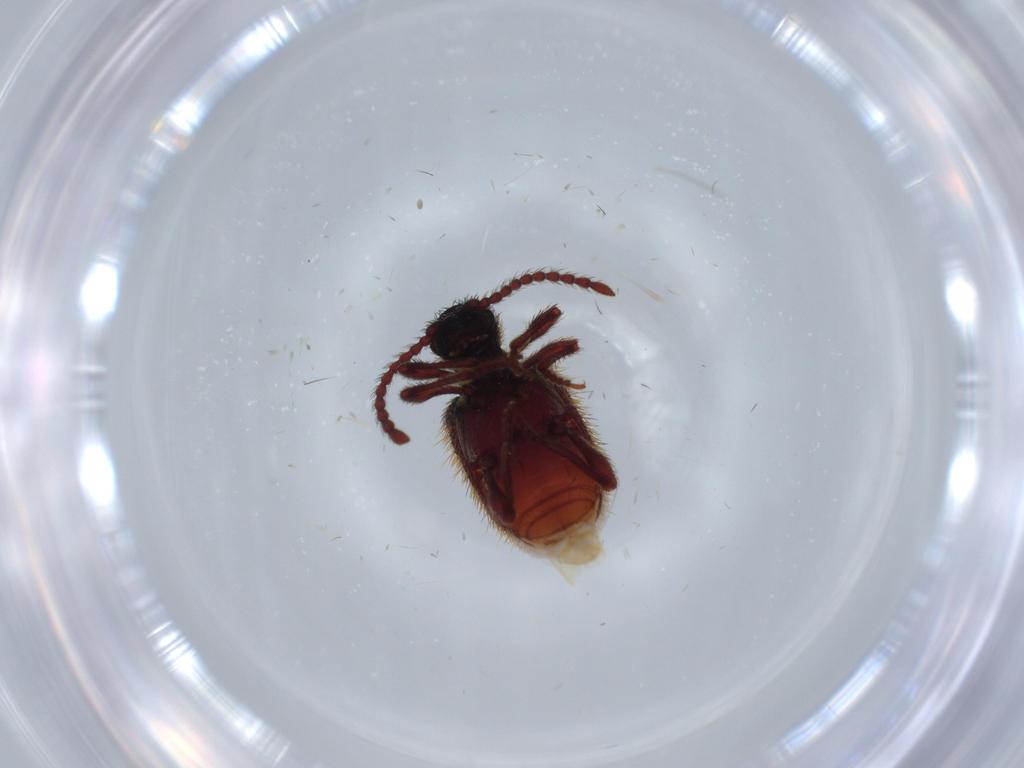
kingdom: Animalia
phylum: Arthropoda
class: Insecta
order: Coleoptera
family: Ptinidae
